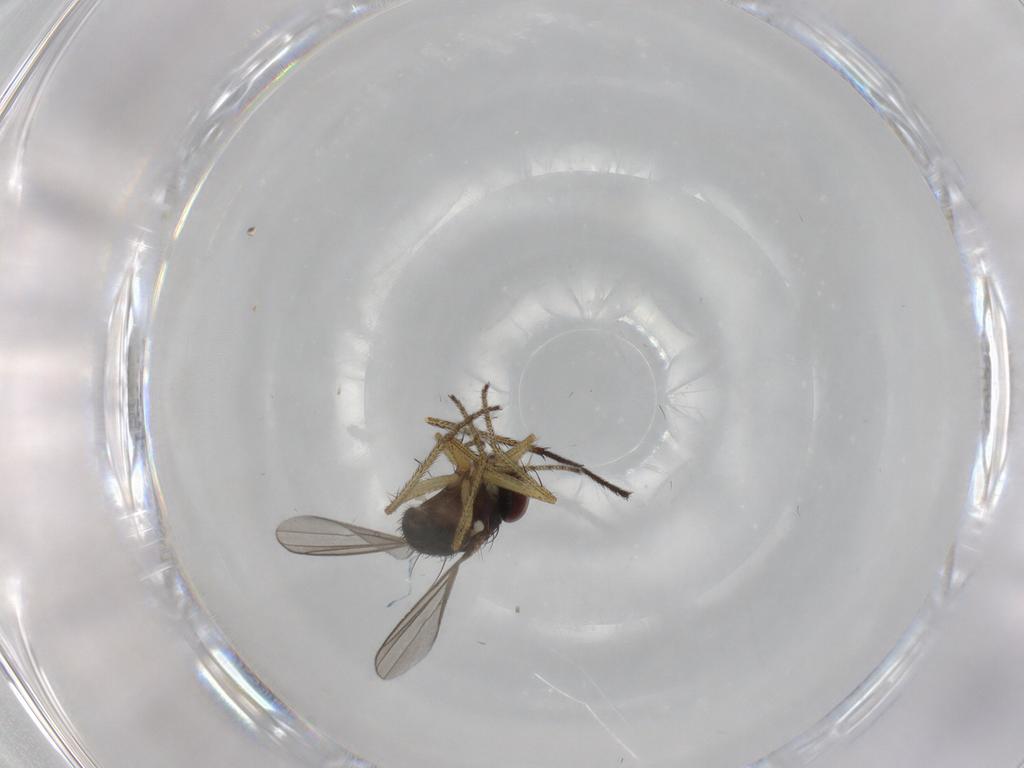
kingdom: Animalia
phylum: Arthropoda
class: Insecta
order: Diptera
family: Dolichopodidae
